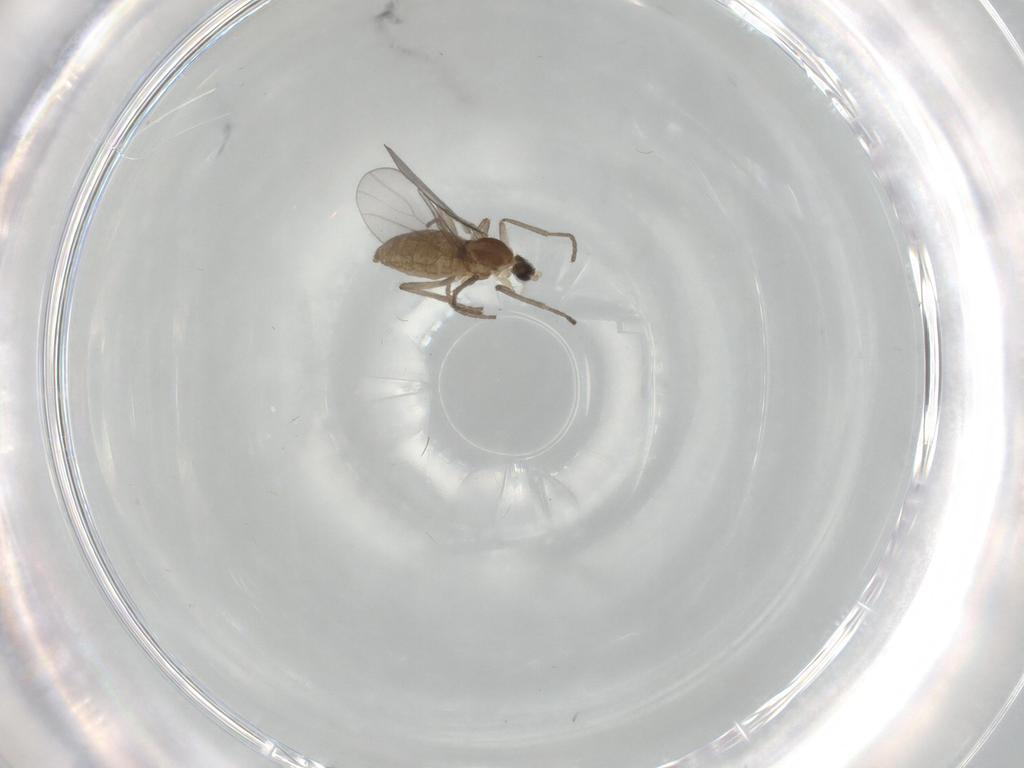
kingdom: Animalia
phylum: Arthropoda
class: Insecta
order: Diptera
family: Cecidomyiidae
